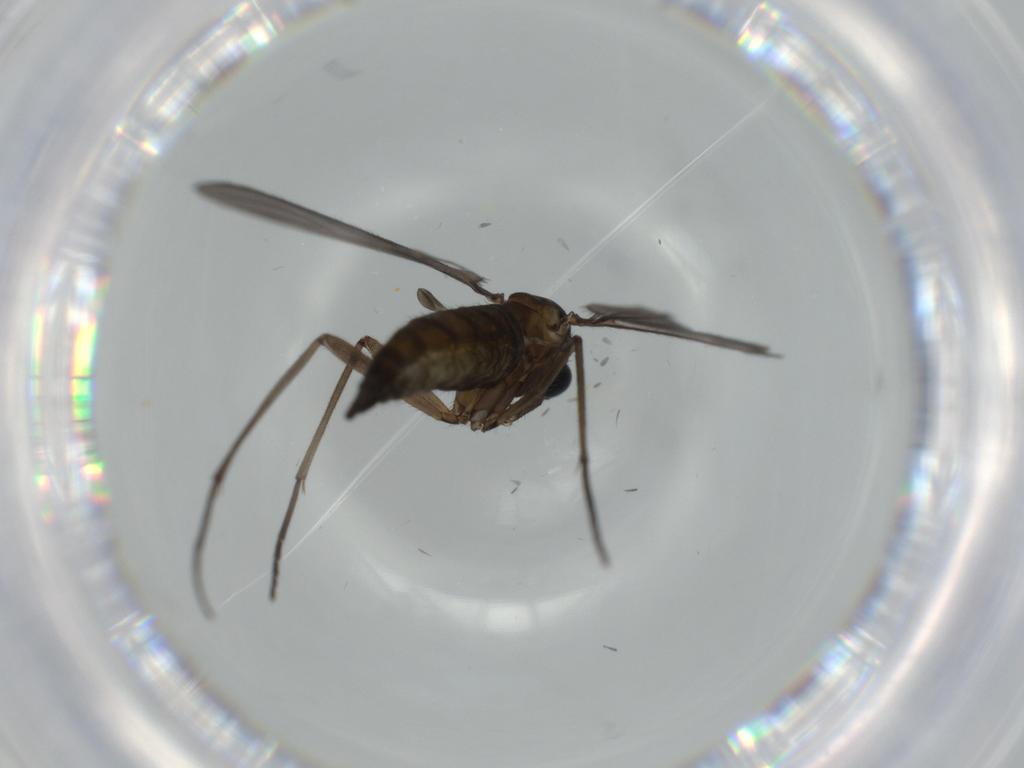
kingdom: Animalia
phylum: Arthropoda
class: Insecta
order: Diptera
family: Sciaridae
